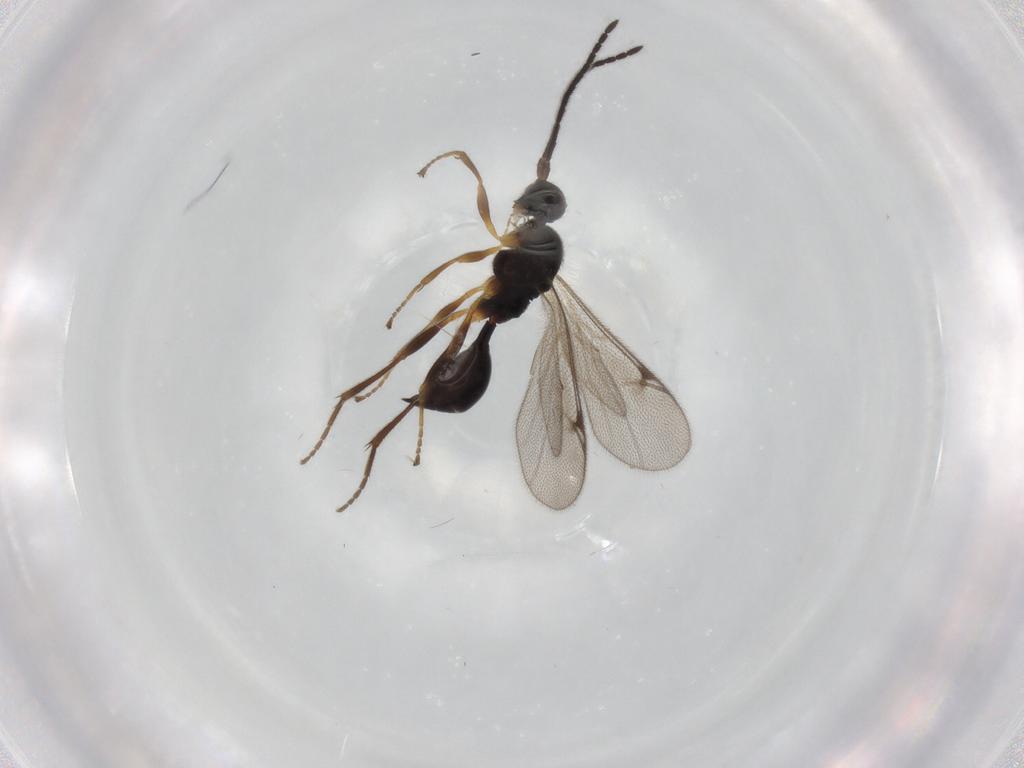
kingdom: Animalia
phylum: Arthropoda
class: Insecta
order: Hymenoptera
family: Proctotrupidae
